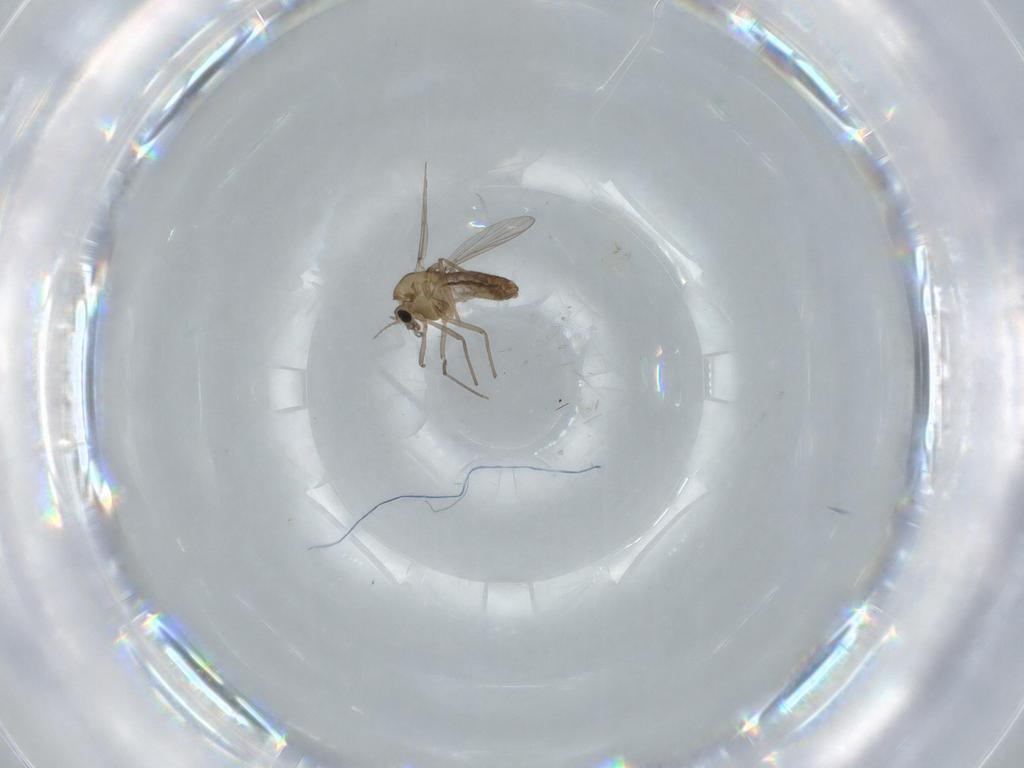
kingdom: Animalia
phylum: Arthropoda
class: Insecta
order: Diptera
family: Chironomidae
